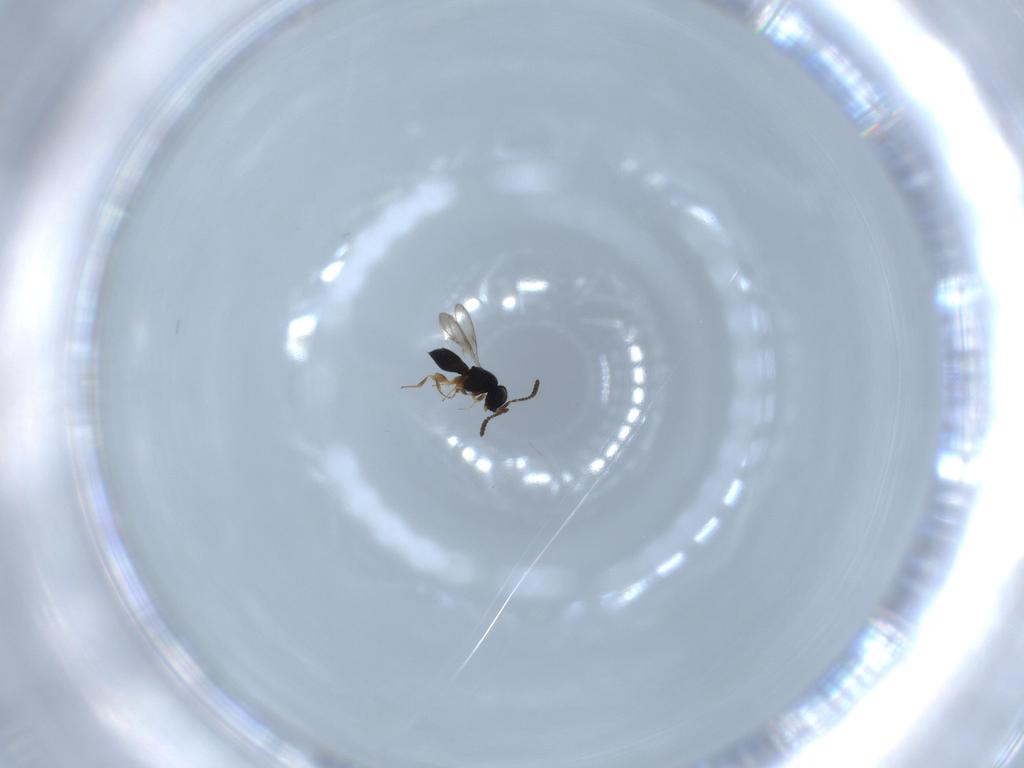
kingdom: Animalia
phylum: Arthropoda
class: Insecta
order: Hymenoptera
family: Scelionidae
